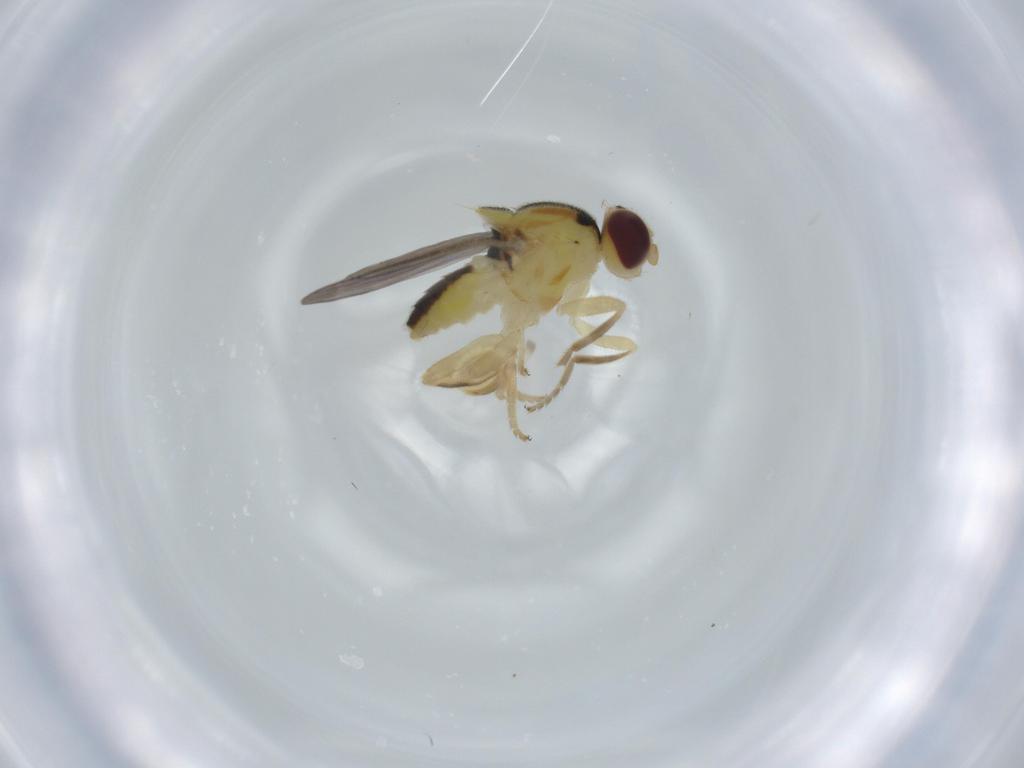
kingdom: Animalia
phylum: Arthropoda
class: Insecta
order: Diptera
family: Chloropidae
